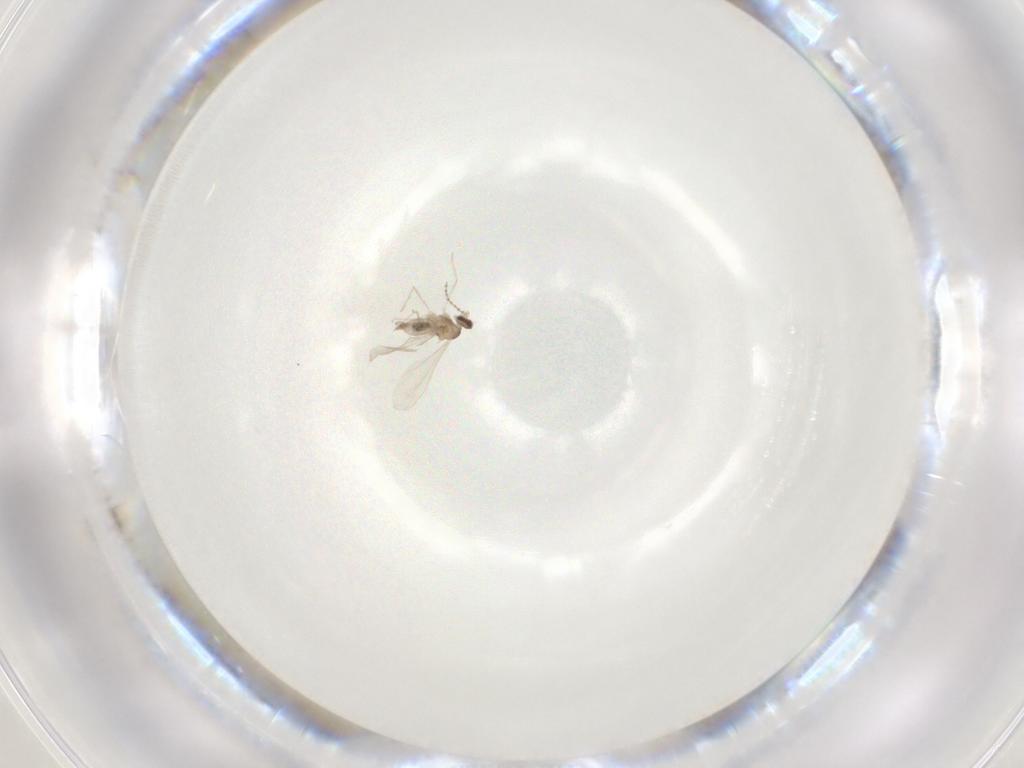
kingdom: Animalia
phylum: Arthropoda
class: Insecta
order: Diptera
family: Cecidomyiidae
